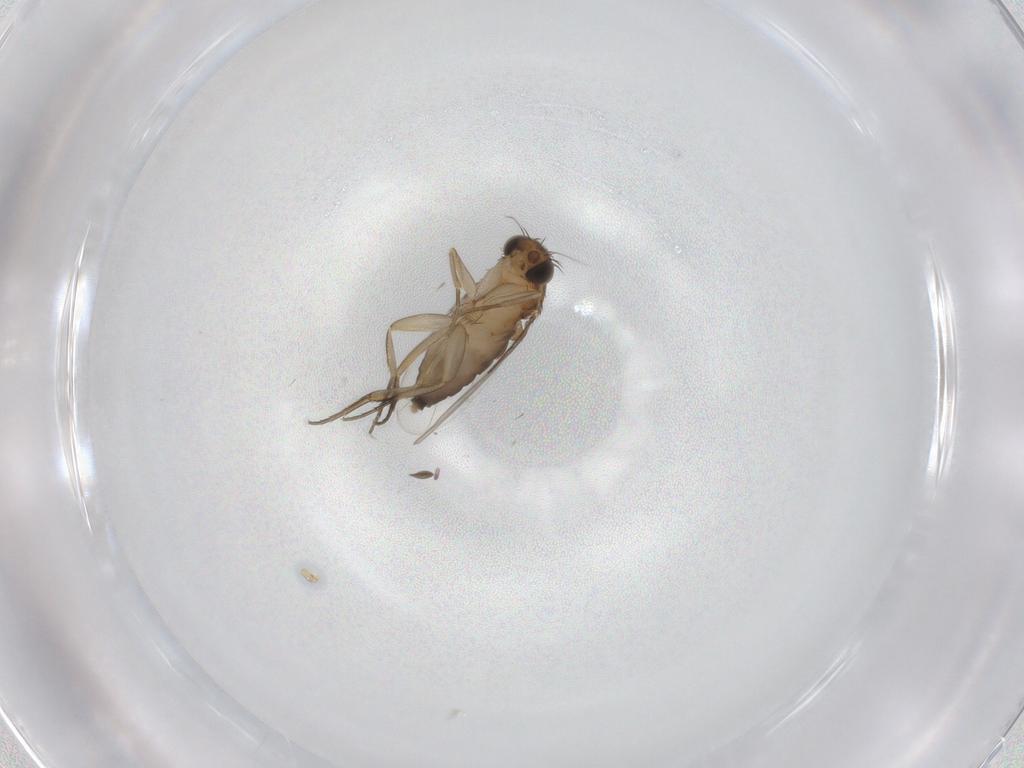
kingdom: Animalia
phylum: Arthropoda
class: Insecta
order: Diptera
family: Phoridae
